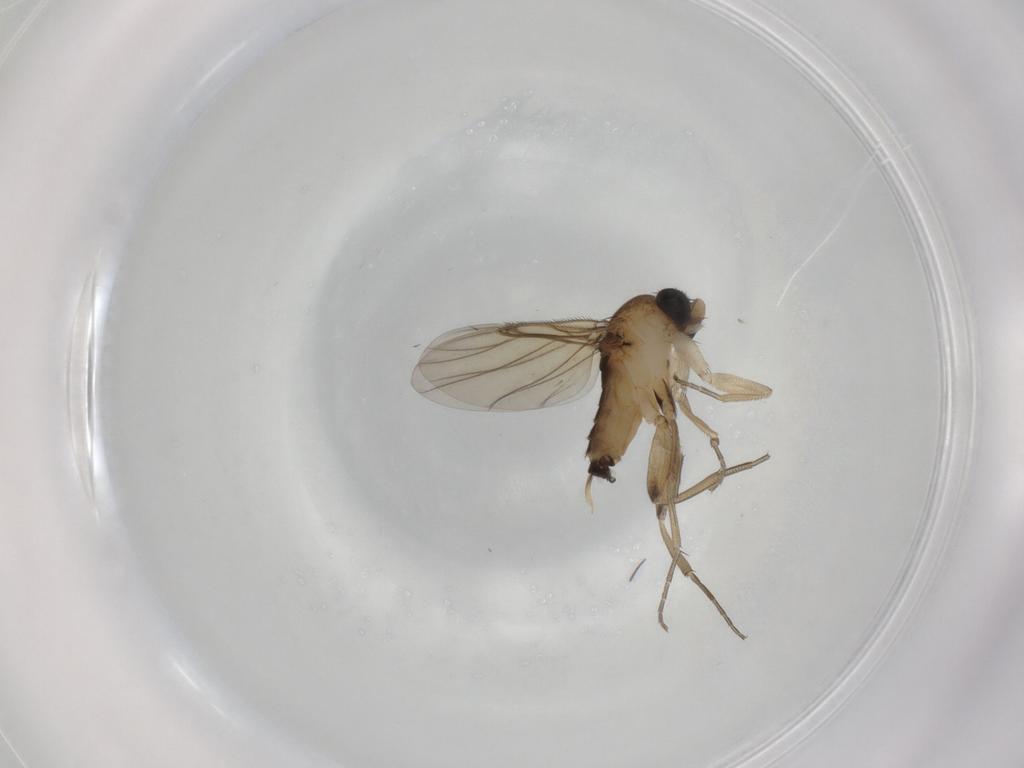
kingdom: Animalia
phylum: Arthropoda
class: Insecta
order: Diptera
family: Phoridae
